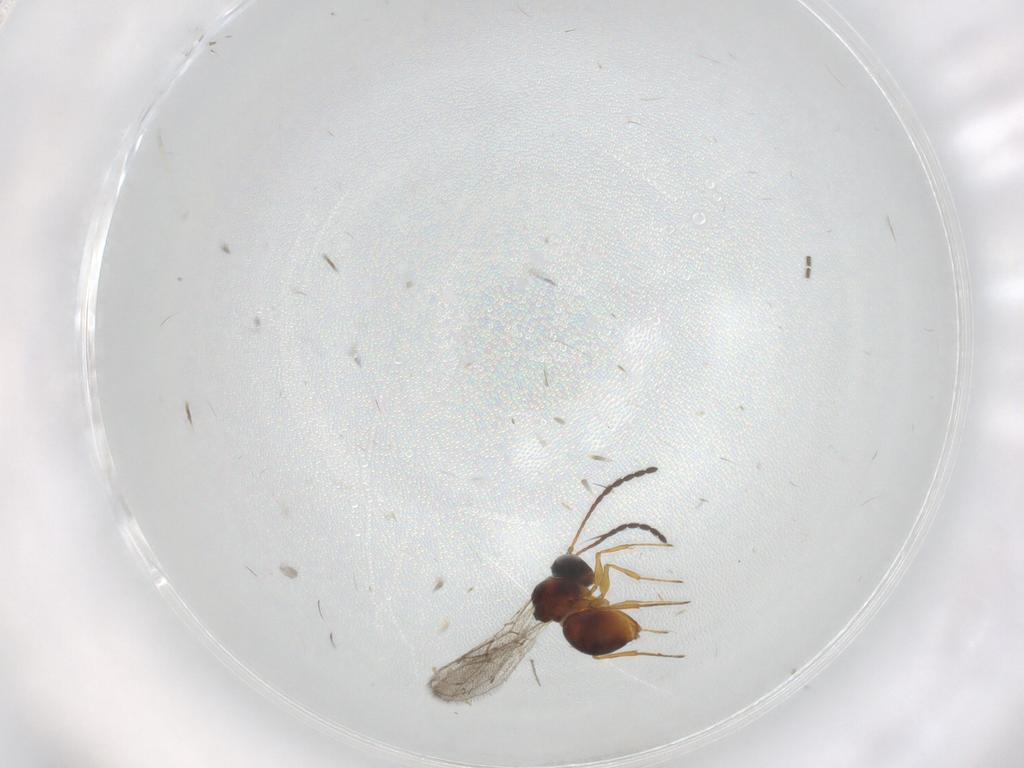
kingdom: Animalia
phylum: Arthropoda
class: Insecta
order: Hymenoptera
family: Figitidae
